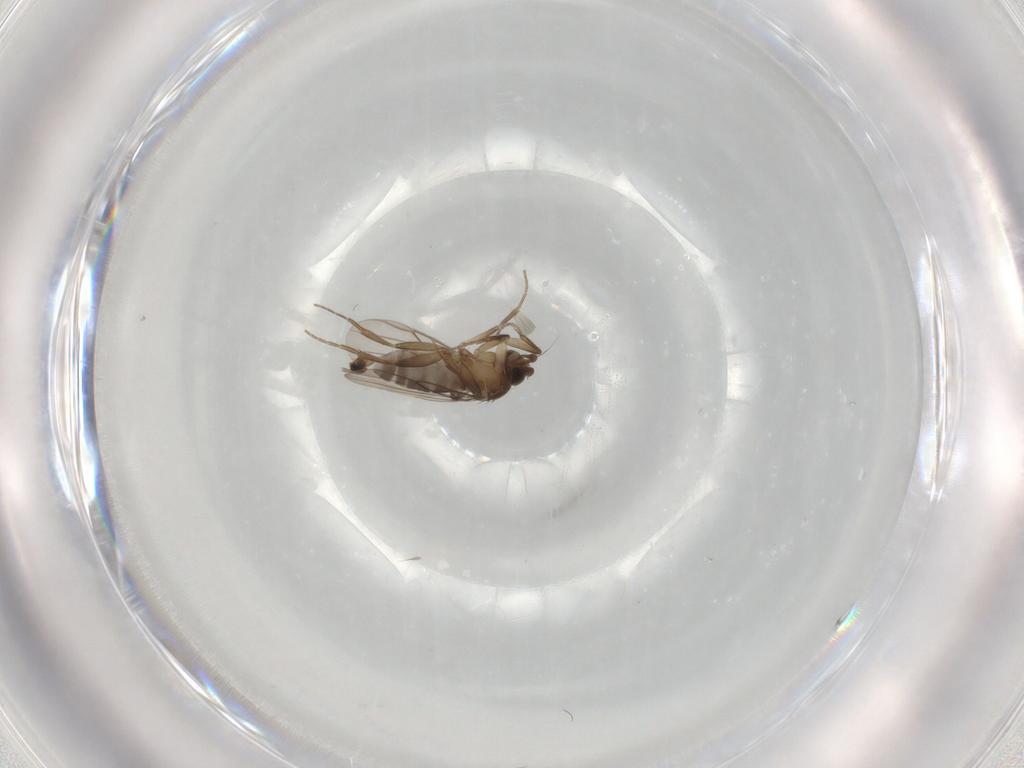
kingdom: Animalia
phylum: Arthropoda
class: Insecta
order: Diptera
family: Phoridae
